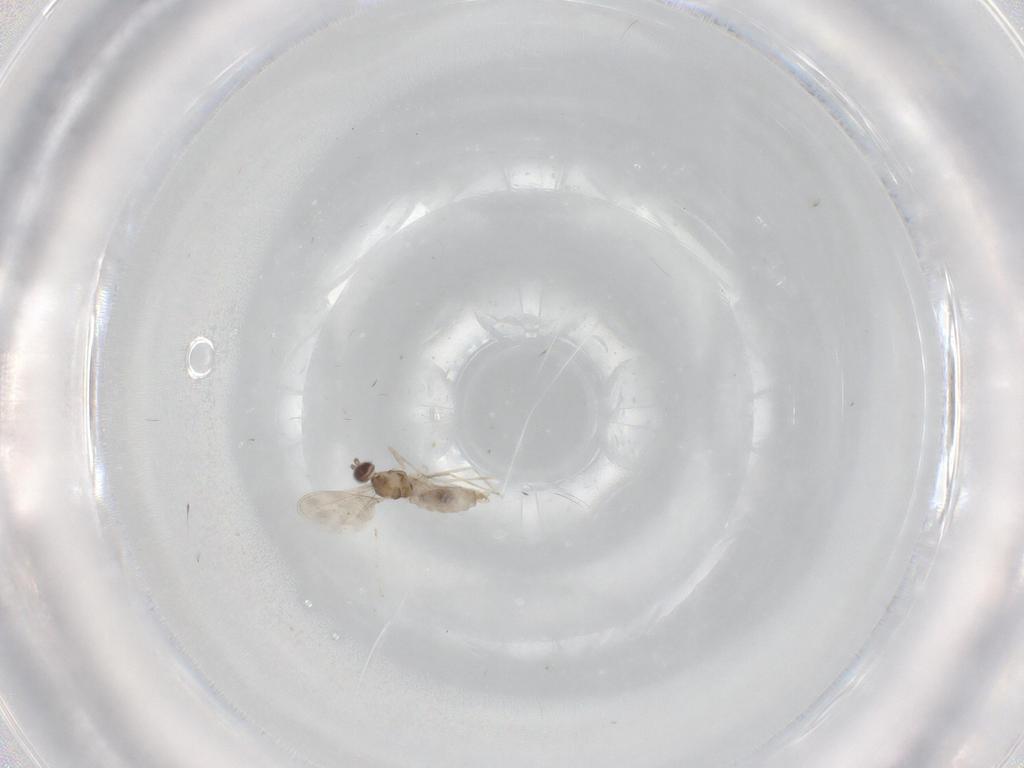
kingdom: Animalia
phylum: Arthropoda
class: Insecta
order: Diptera
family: Cecidomyiidae
